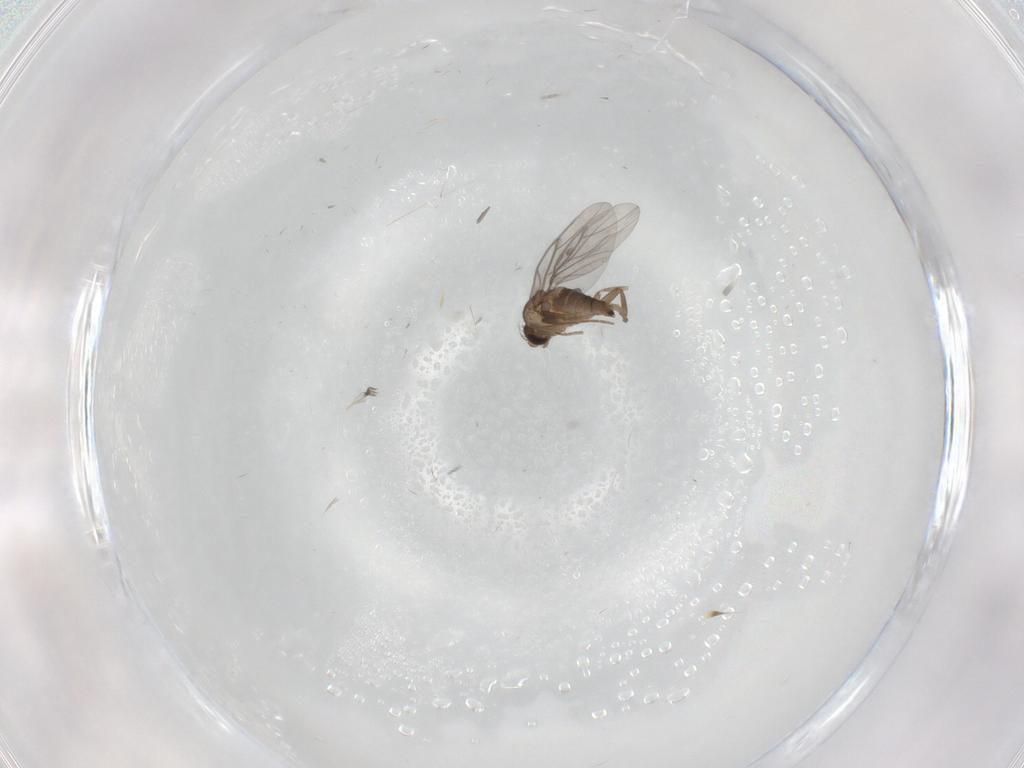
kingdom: Animalia
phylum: Arthropoda
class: Insecta
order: Diptera
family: Chironomidae
